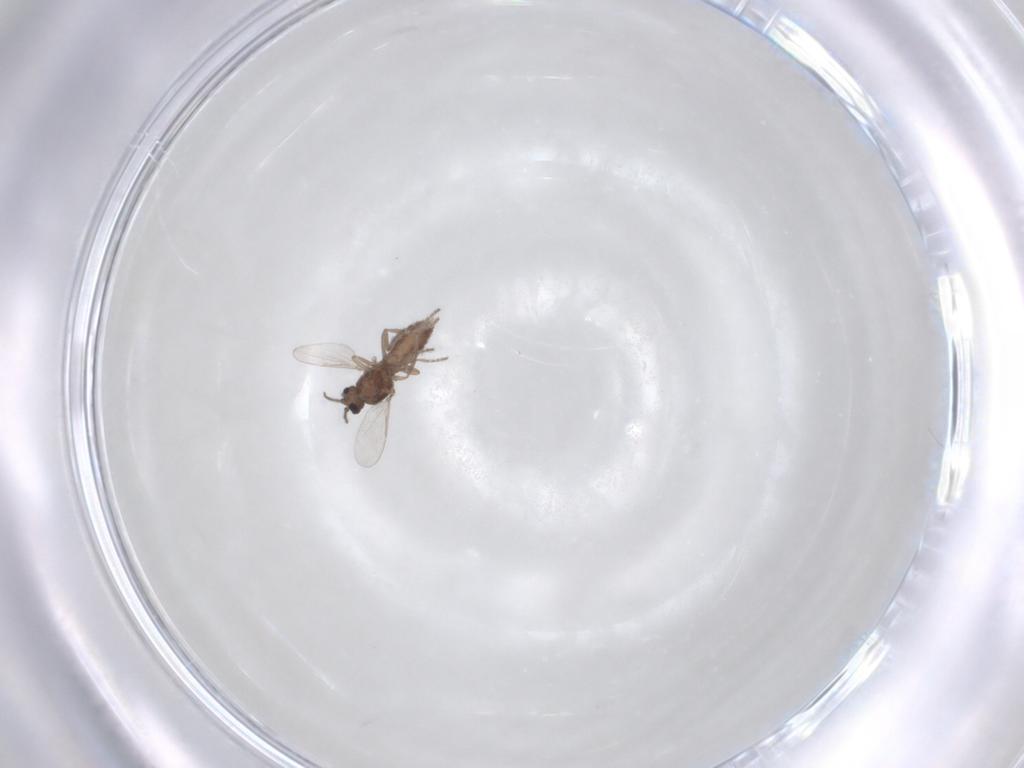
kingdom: Animalia
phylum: Arthropoda
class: Insecta
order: Diptera
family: Ceratopogonidae
